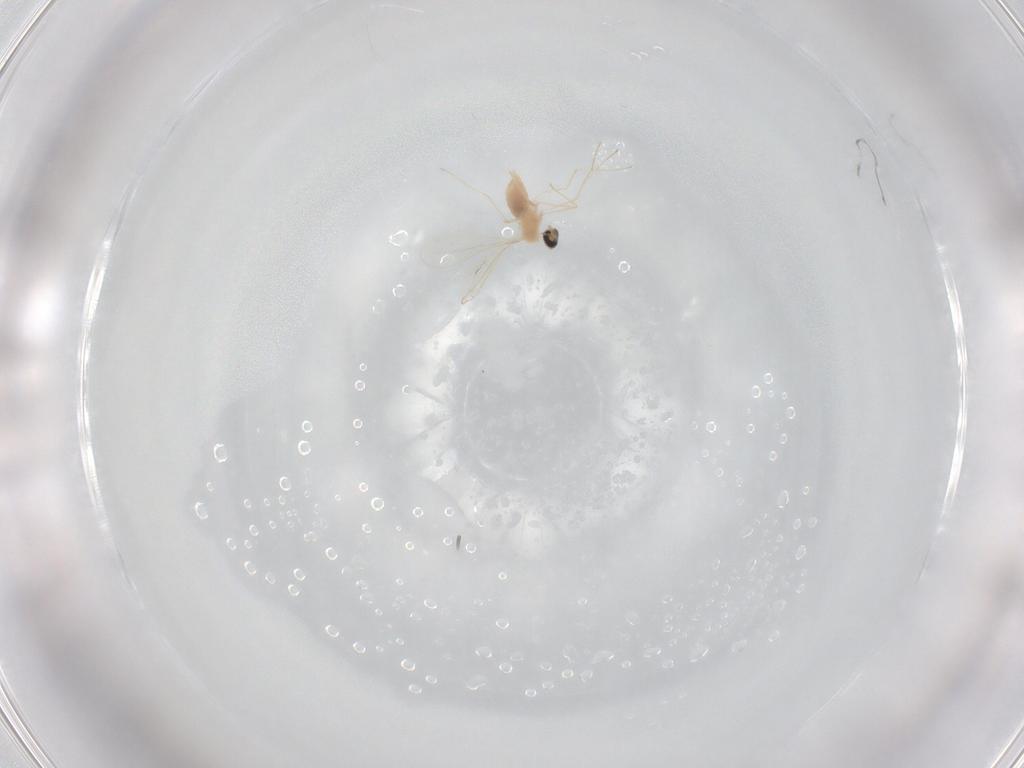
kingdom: Animalia
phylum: Arthropoda
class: Insecta
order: Diptera
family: Cecidomyiidae
